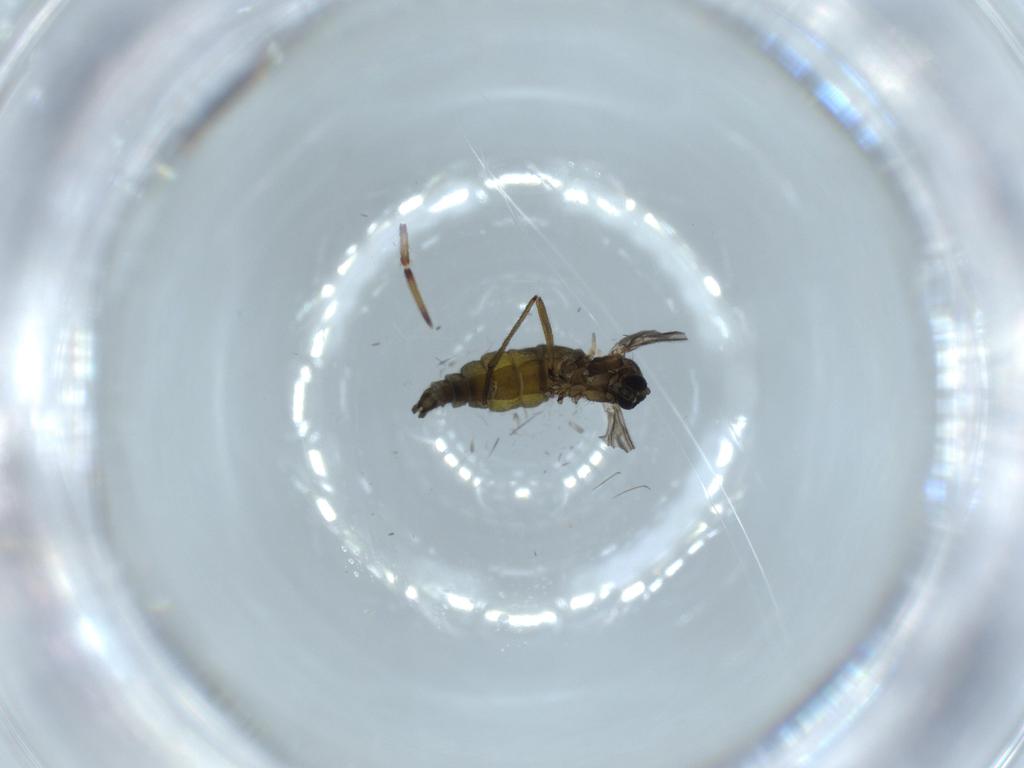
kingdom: Animalia
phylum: Arthropoda
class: Insecta
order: Diptera
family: Sciaridae
